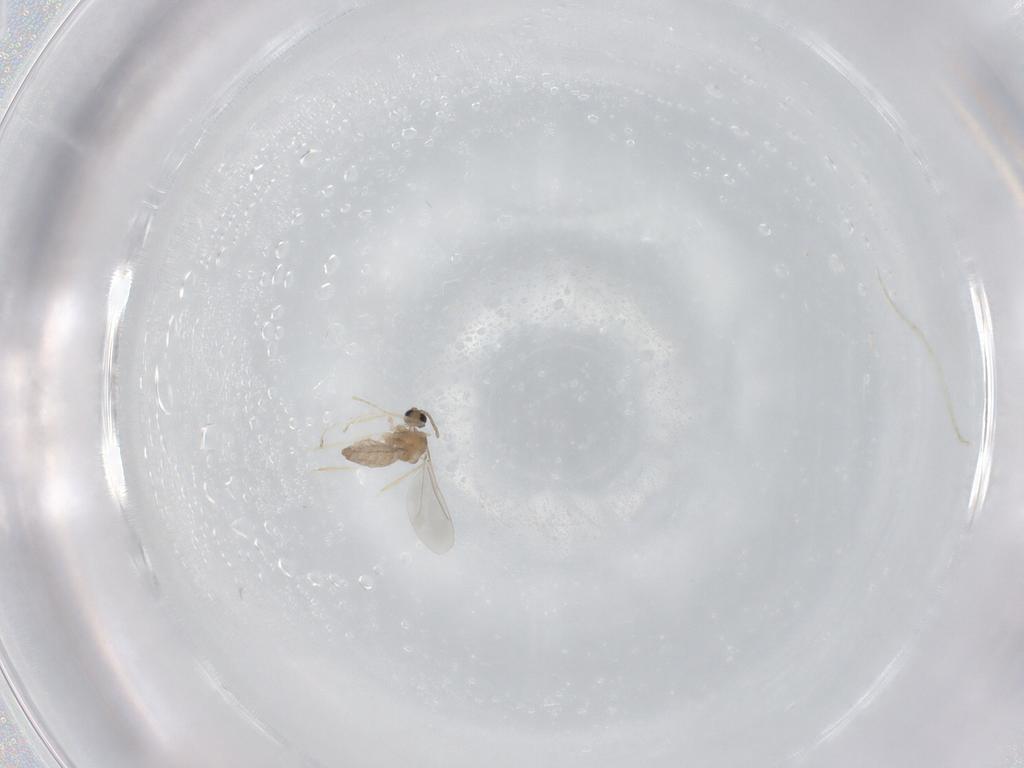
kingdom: Animalia
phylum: Arthropoda
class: Insecta
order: Diptera
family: Cecidomyiidae
